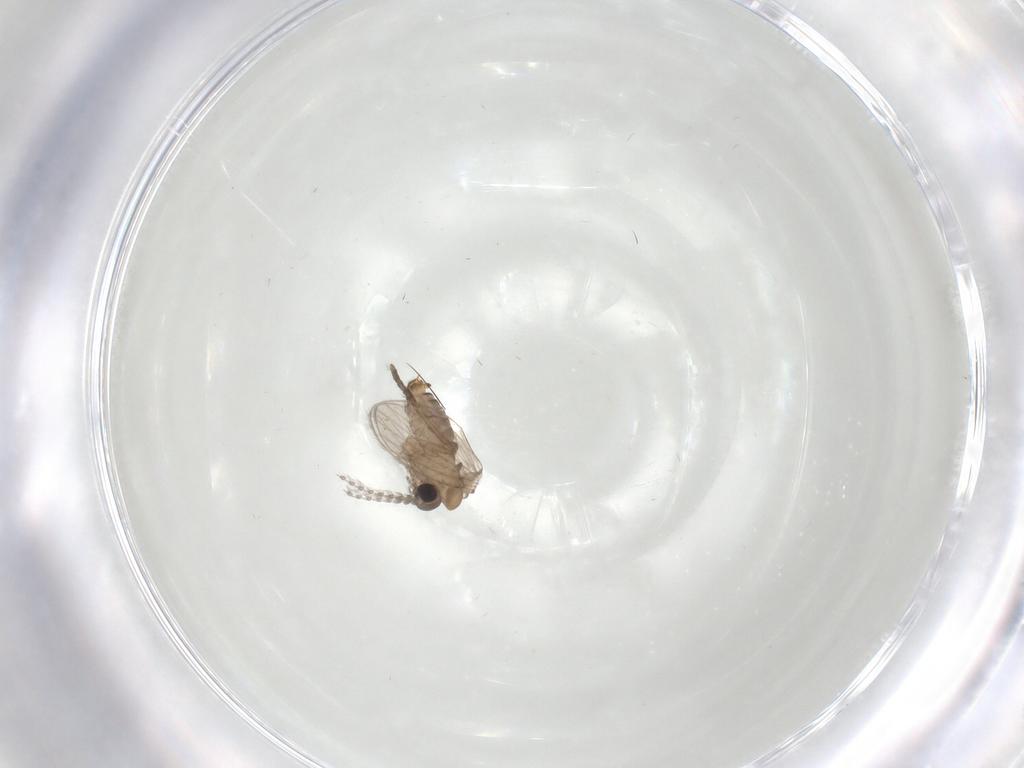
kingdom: Animalia
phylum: Arthropoda
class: Insecta
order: Diptera
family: Psychodidae
